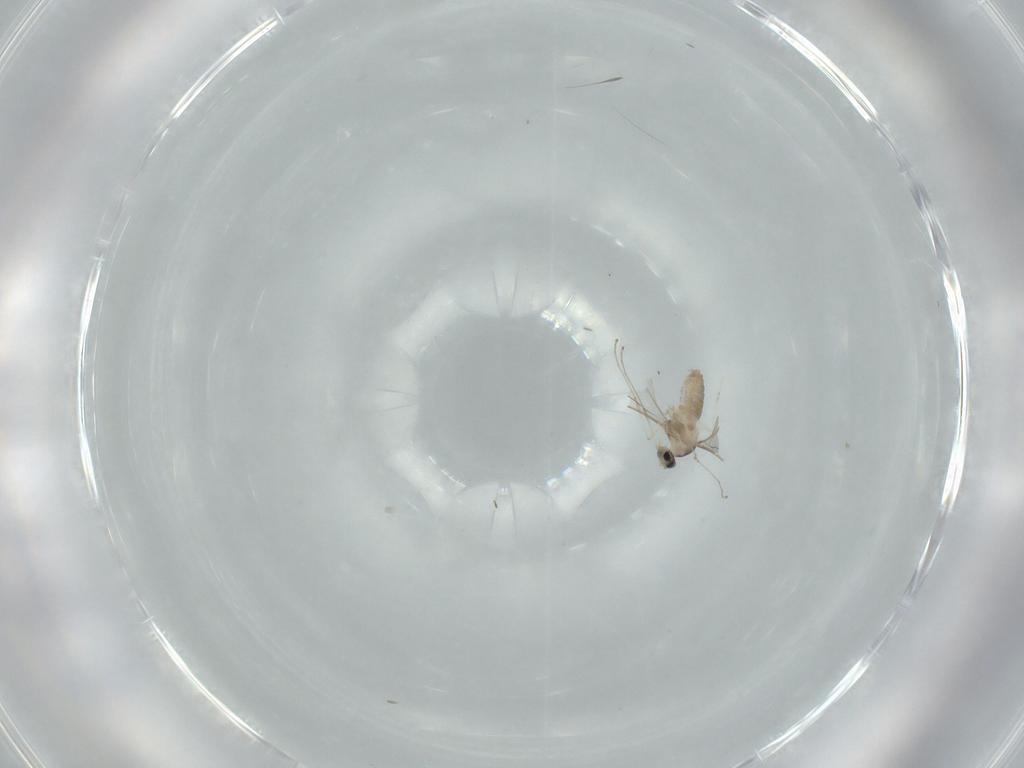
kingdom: Animalia
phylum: Arthropoda
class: Insecta
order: Diptera
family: Cecidomyiidae
